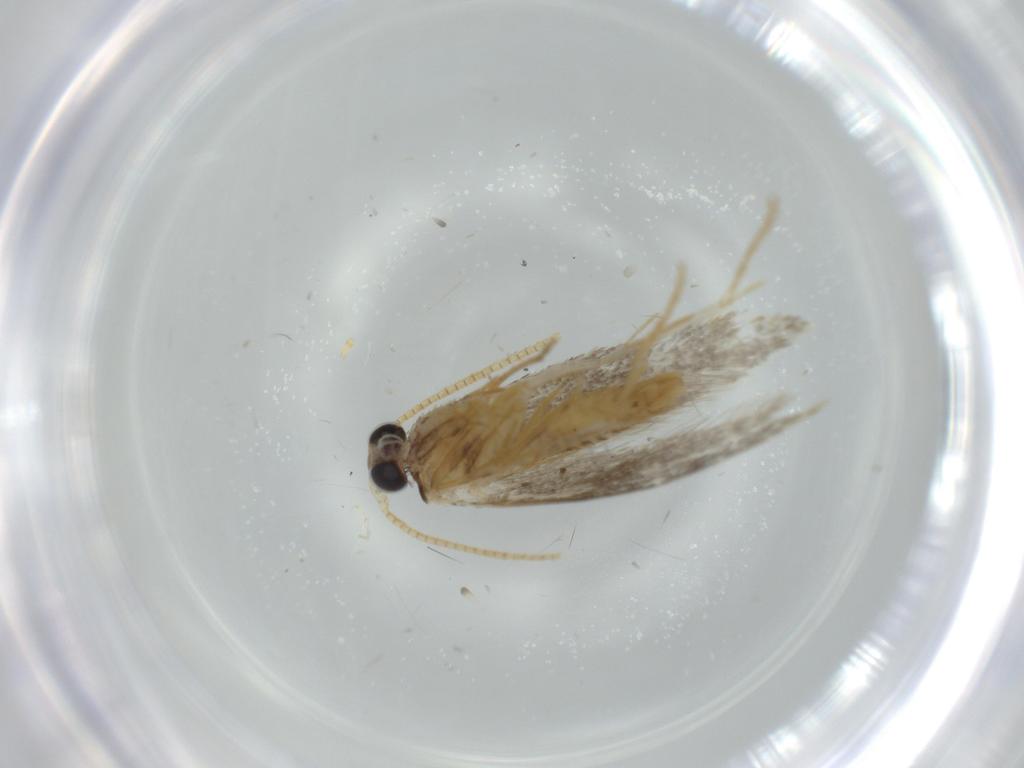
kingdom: Animalia
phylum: Arthropoda
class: Insecta
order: Lepidoptera
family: Tineidae
